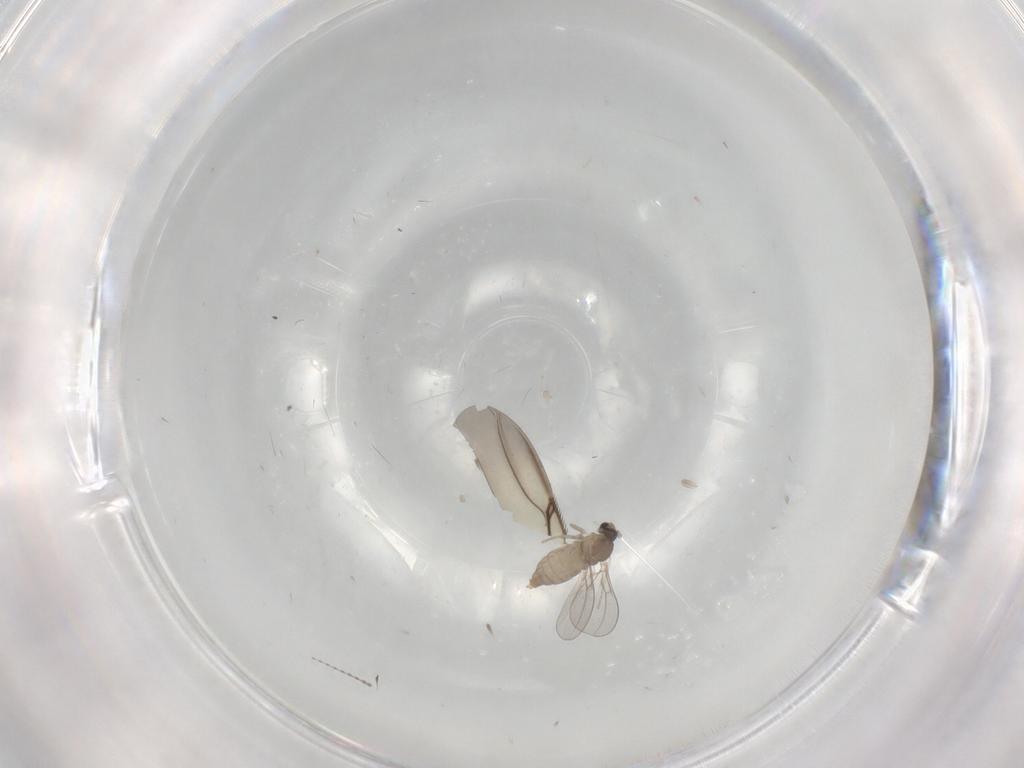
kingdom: Animalia
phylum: Arthropoda
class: Insecta
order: Diptera
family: Cecidomyiidae
